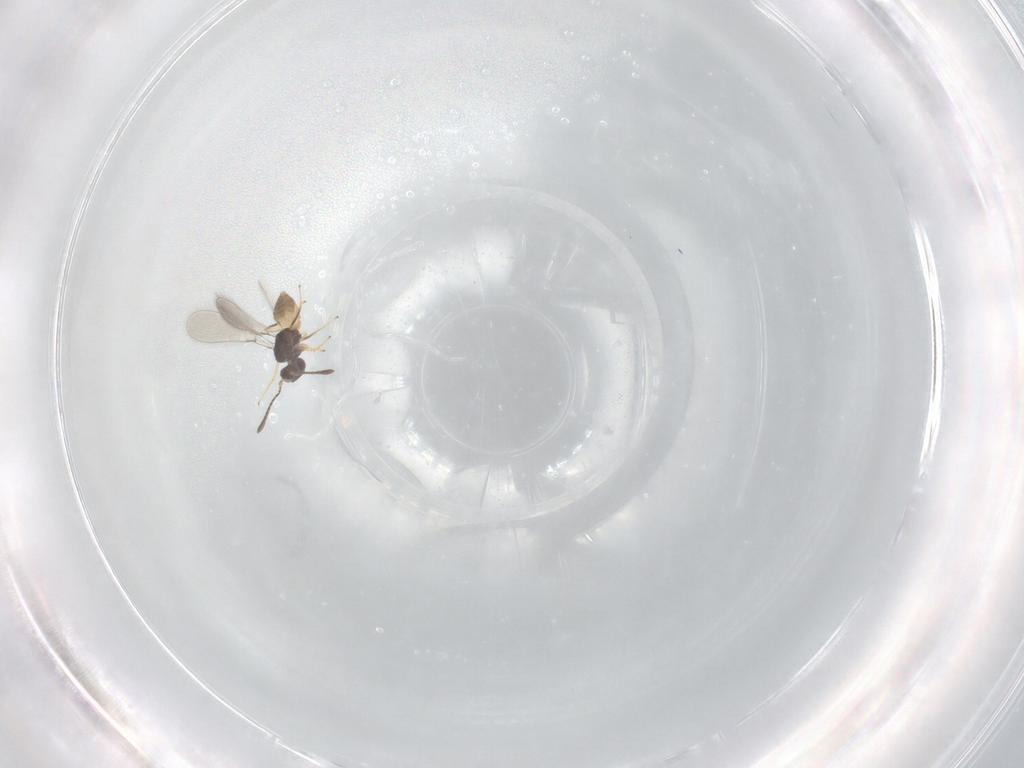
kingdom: Animalia
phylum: Arthropoda
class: Insecta
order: Hymenoptera
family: Mymaridae
